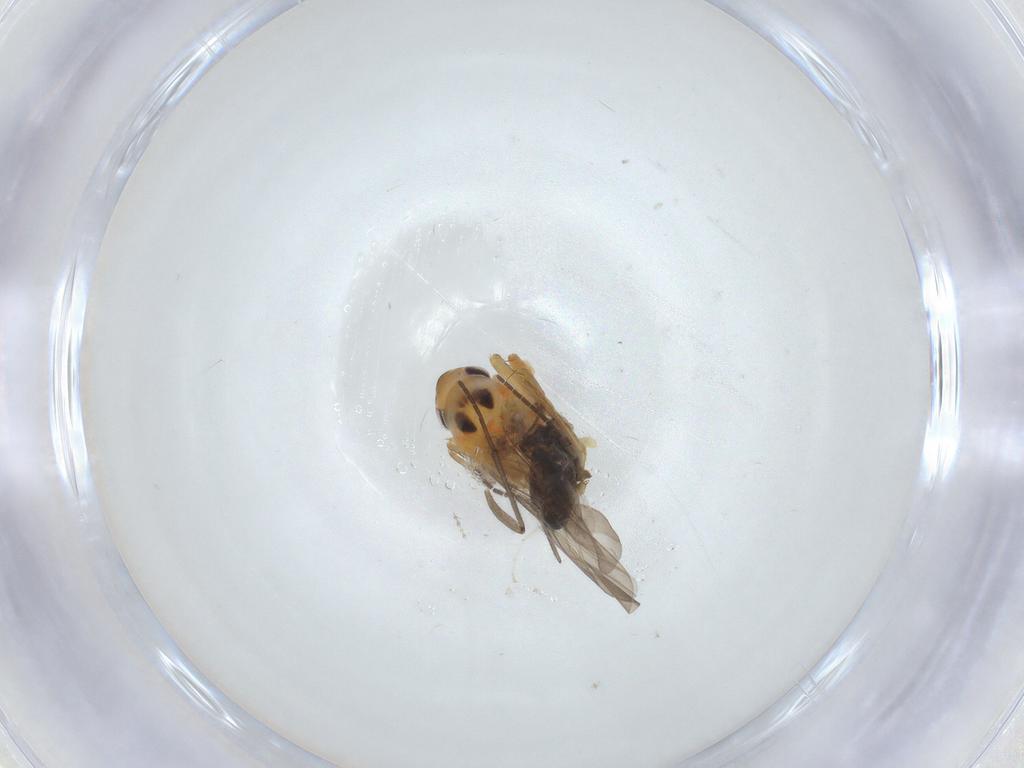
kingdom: Animalia
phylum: Arthropoda
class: Insecta
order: Hemiptera
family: Cicadellidae
